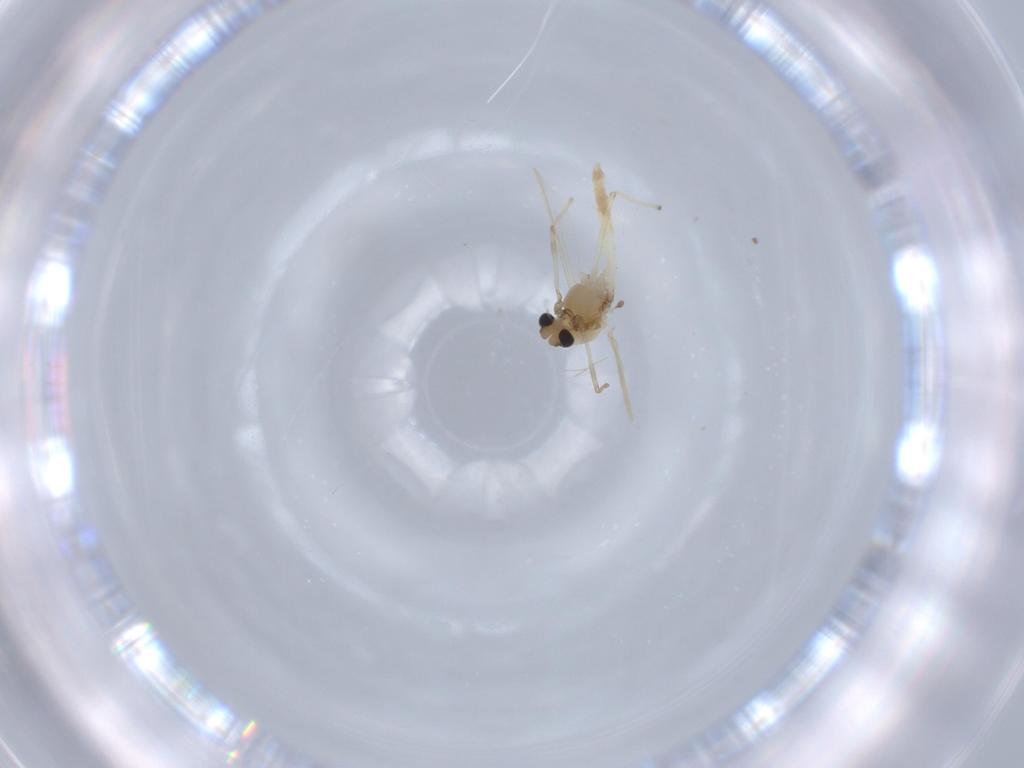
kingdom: Animalia
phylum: Arthropoda
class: Insecta
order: Diptera
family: Chironomidae
